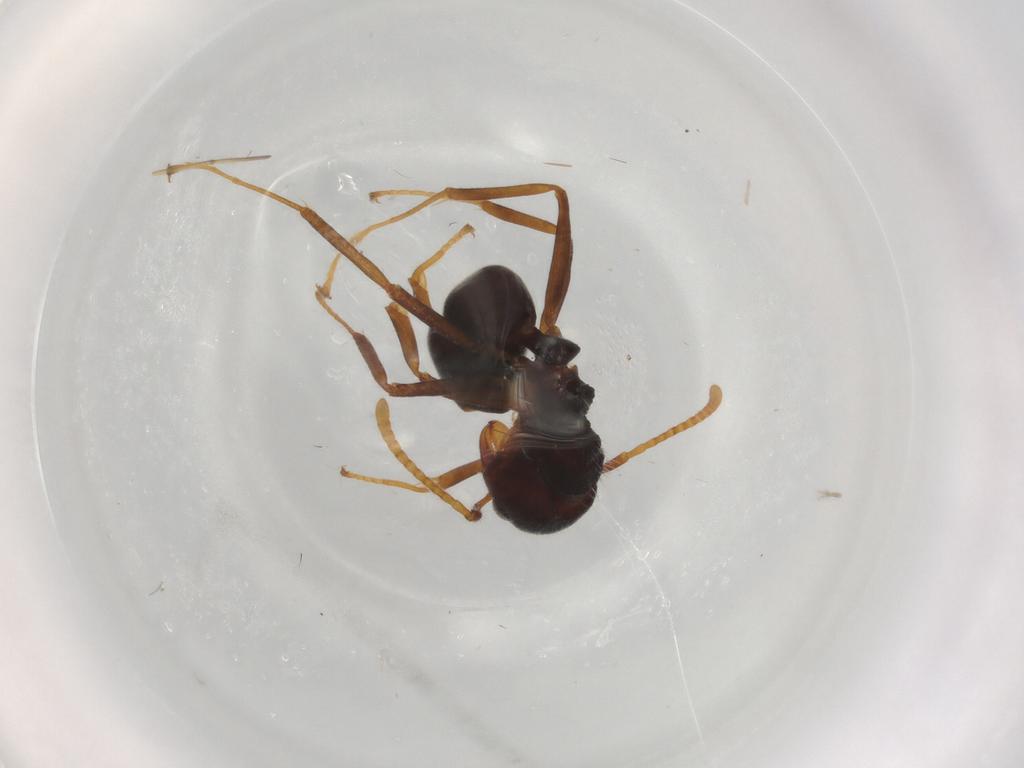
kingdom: Animalia
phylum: Arthropoda
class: Insecta
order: Hymenoptera
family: Formicidae
